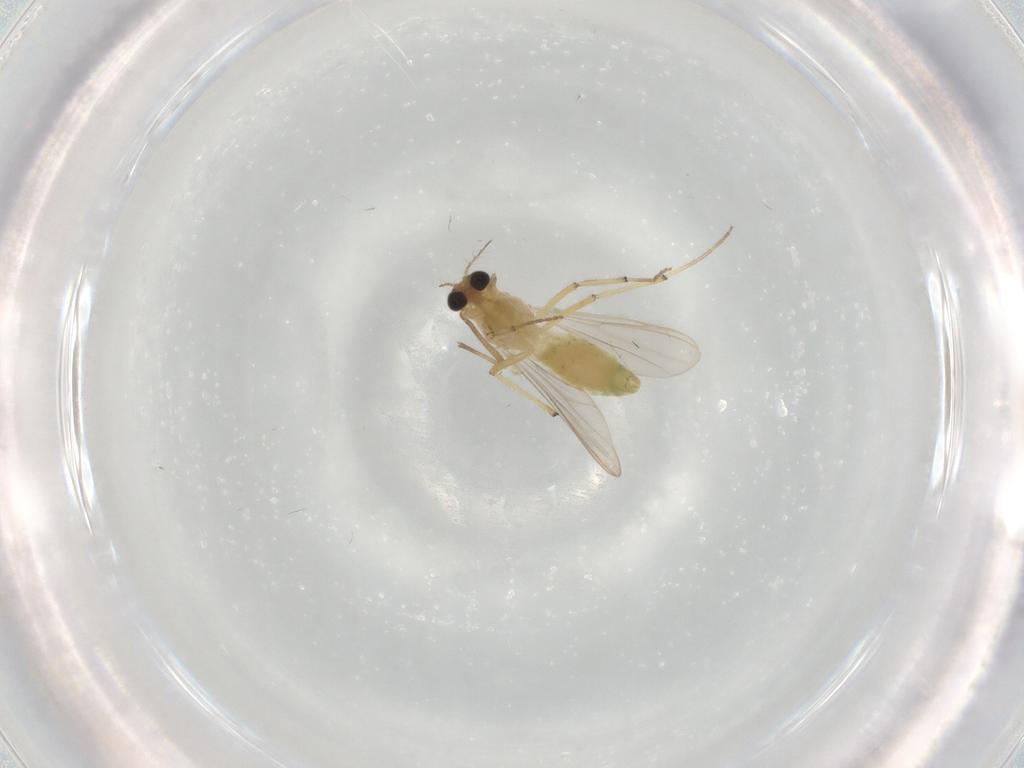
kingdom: Animalia
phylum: Arthropoda
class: Insecta
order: Diptera
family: Chironomidae
